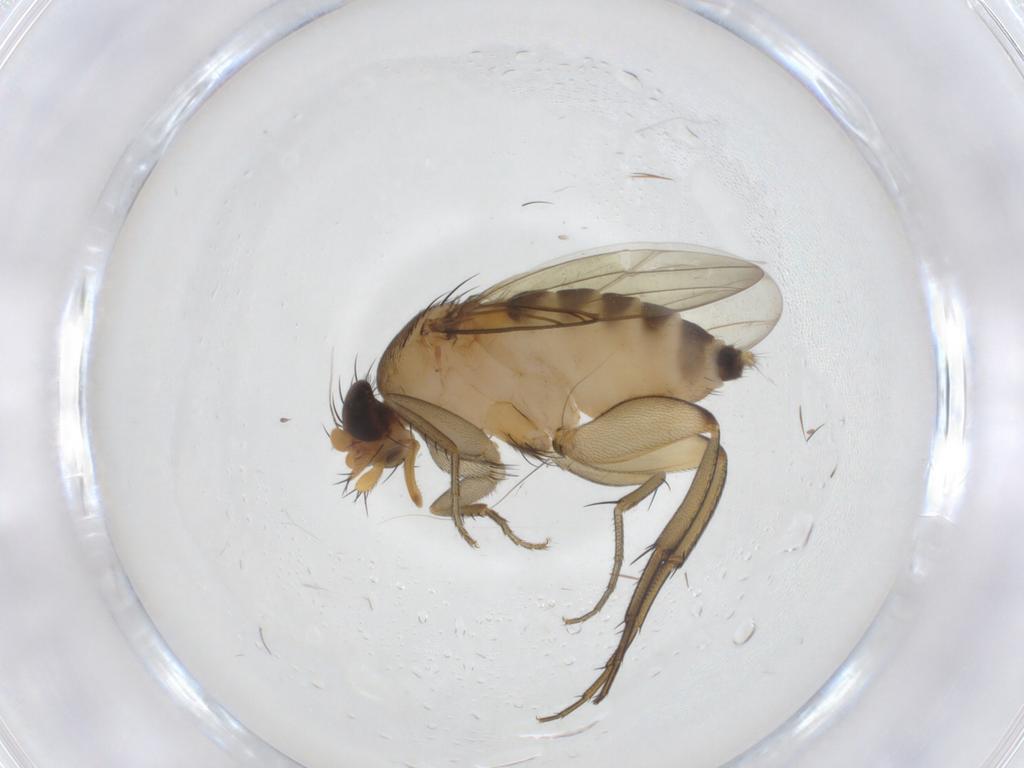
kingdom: Animalia
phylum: Arthropoda
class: Insecta
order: Diptera
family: Phoridae
